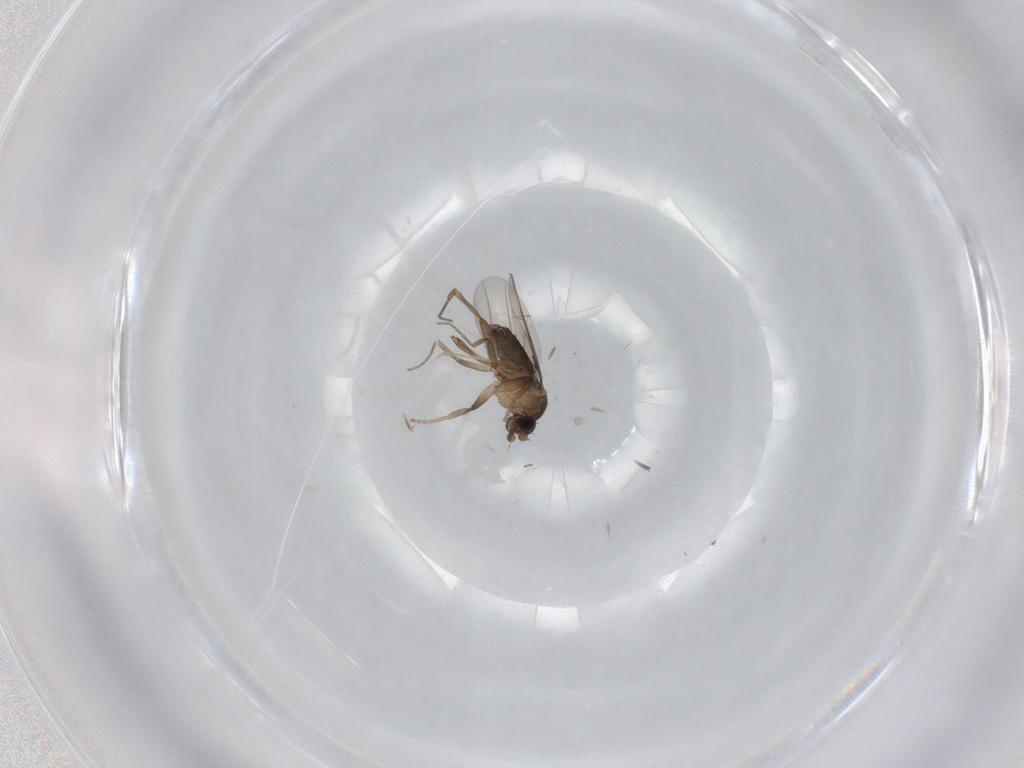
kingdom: Animalia
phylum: Arthropoda
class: Insecta
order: Diptera
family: Phoridae
